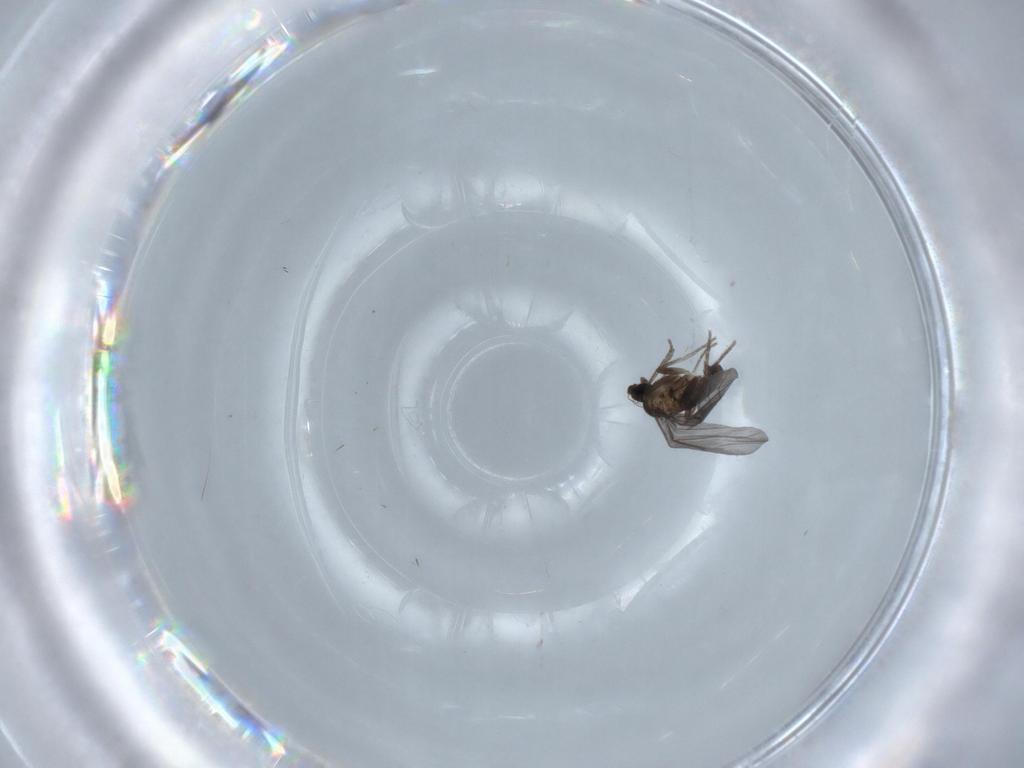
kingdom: Animalia
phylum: Arthropoda
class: Insecta
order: Diptera
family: Phoridae
